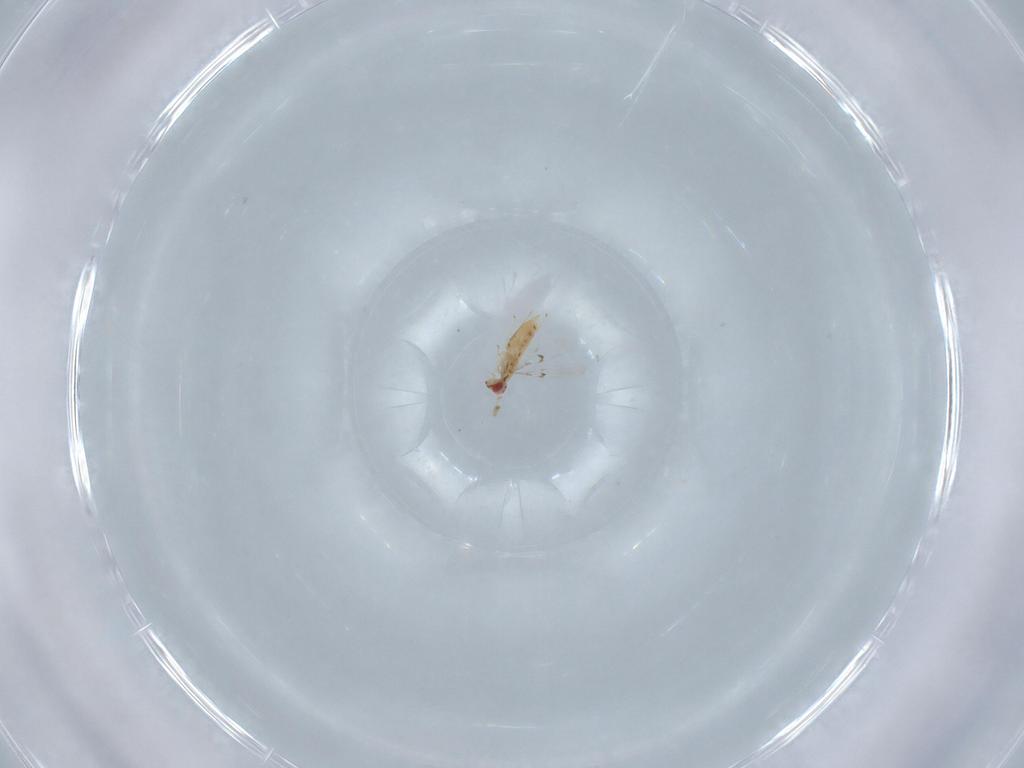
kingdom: Animalia
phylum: Arthropoda
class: Insecta
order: Hymenoptera
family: Trichogrammatidae
